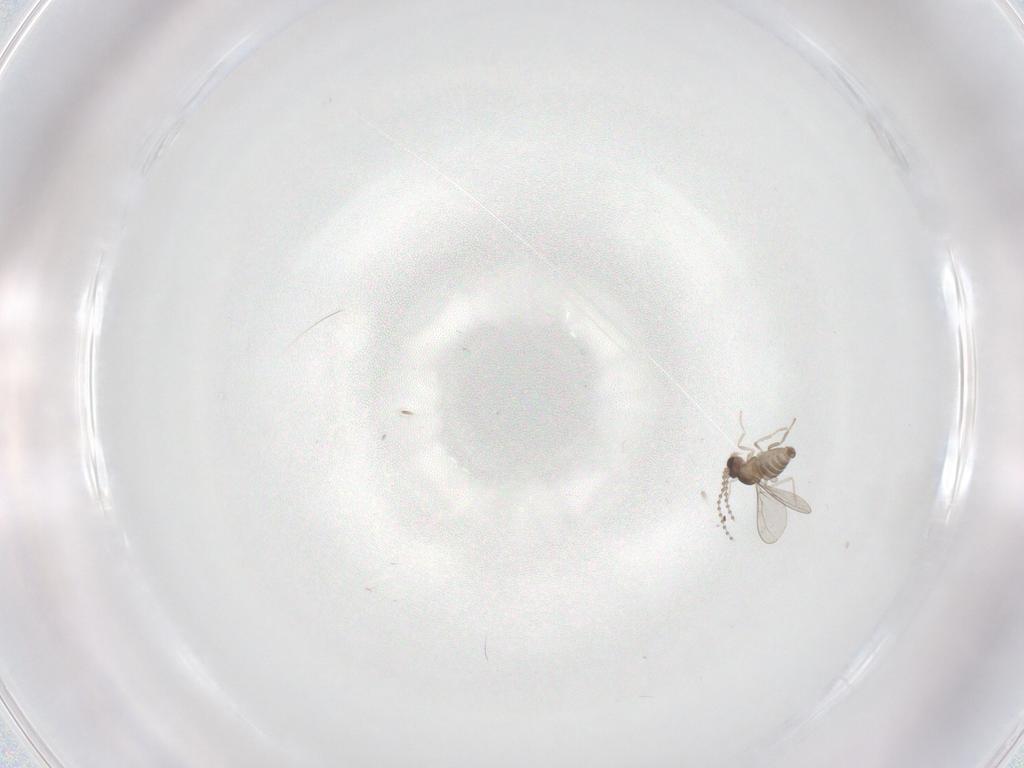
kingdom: Animalia
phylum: Arthropoda
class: Insecta
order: Diptera
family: Cecidomyiidae
